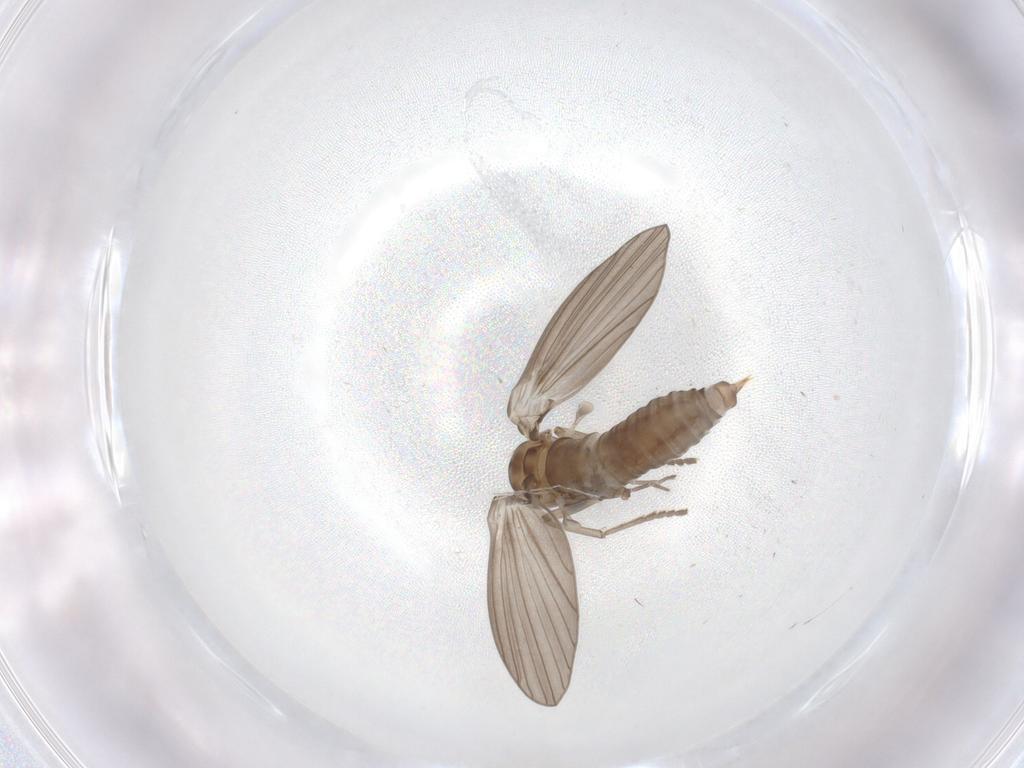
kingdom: Animalia
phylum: Arthropoda
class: Insecta
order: Diptera
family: Psychodidae
